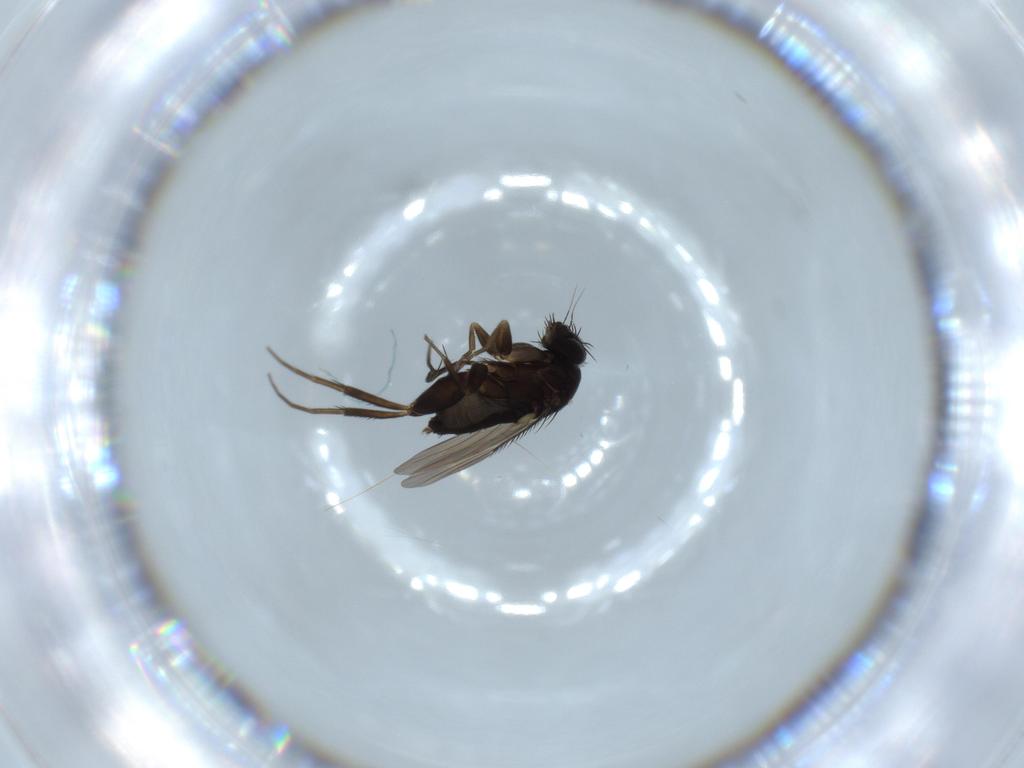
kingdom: Animalia
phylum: Arthropoda
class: Insecta
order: Diptera
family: Phoridae
